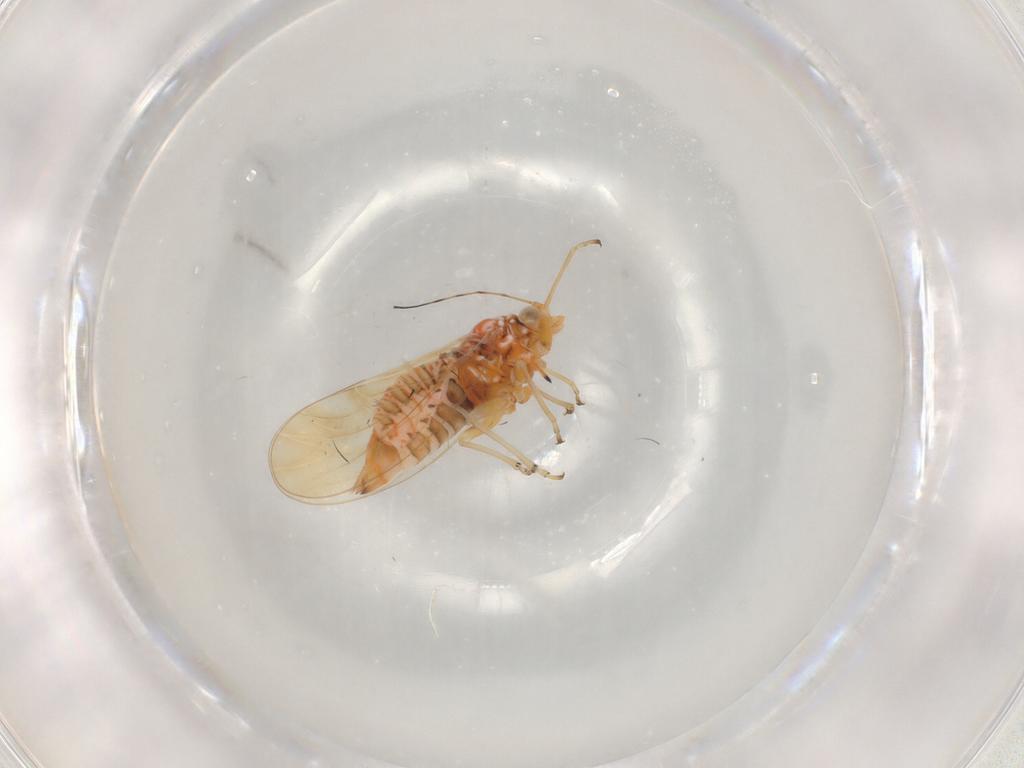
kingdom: Animalia
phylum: Arthropoda
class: Insecta
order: Hemiptera
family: Psyllidae
